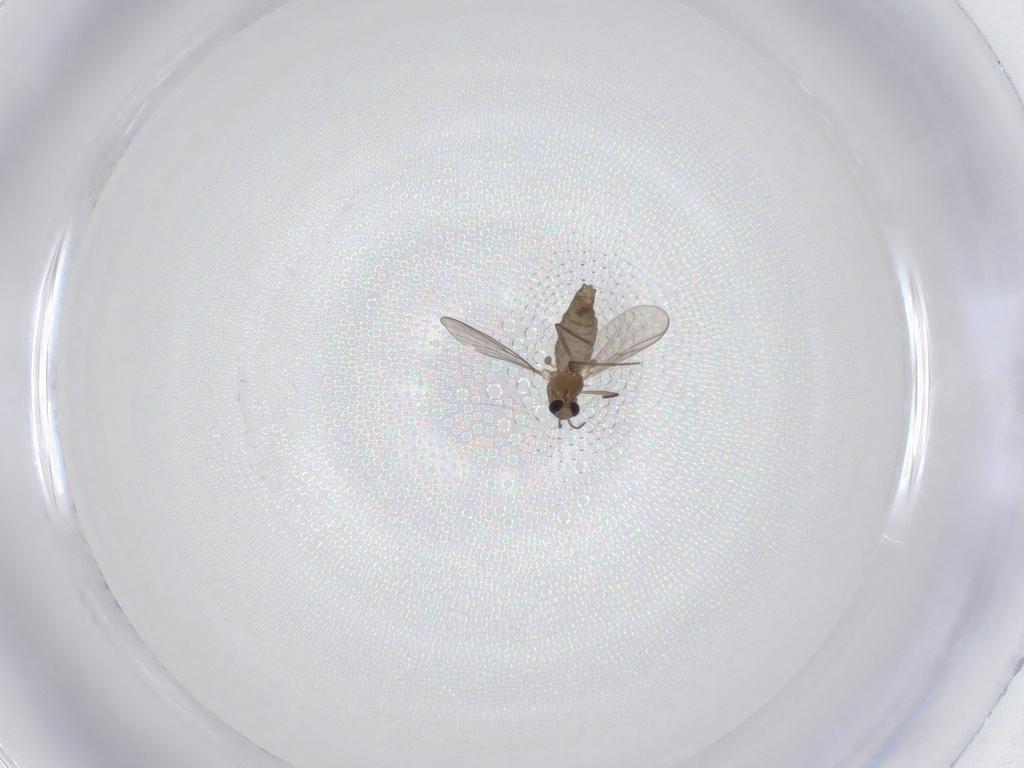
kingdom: Animalia
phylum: Arthropoda
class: Insecta
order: Diptera
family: Chironomidae
